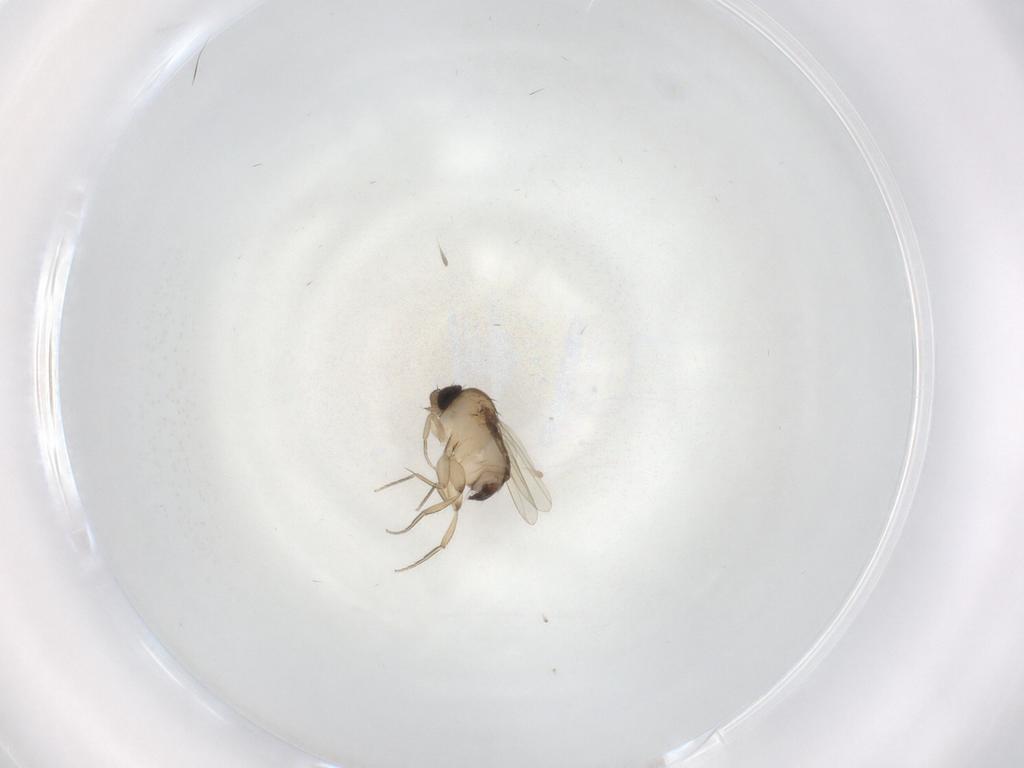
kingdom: Animalia
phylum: Arthropoda
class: Insecta
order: Diptera
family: Phoridae
